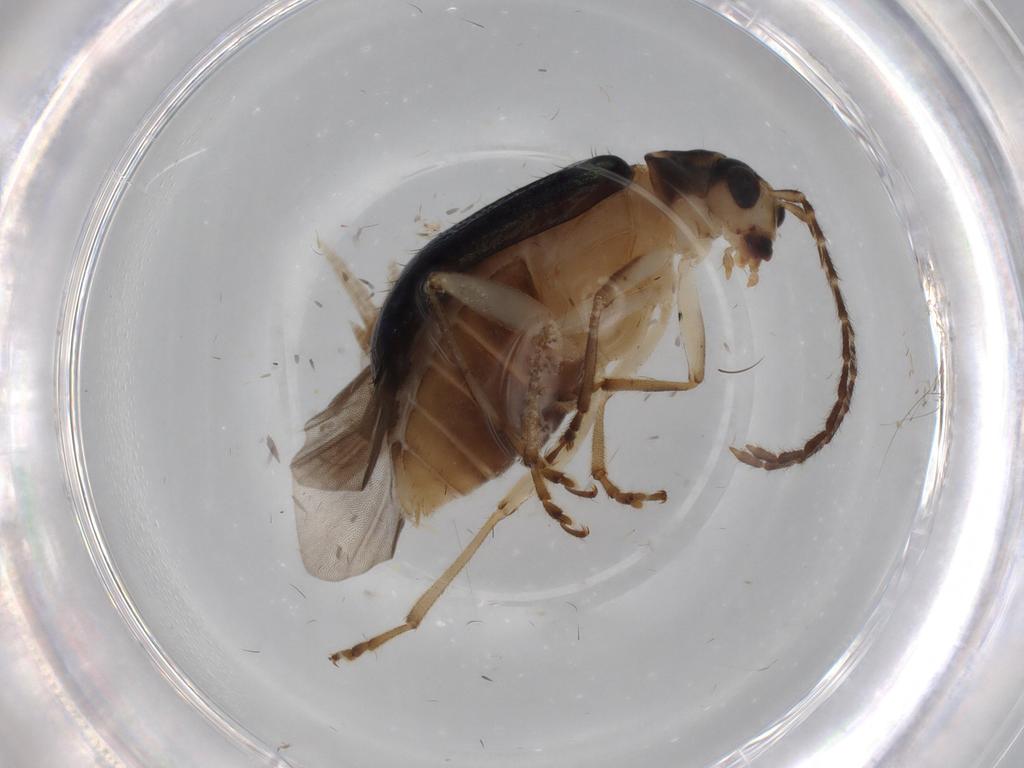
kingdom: Animalia
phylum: Arthropoda
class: Insecta
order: Coleoptera
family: Chrysomelidae
